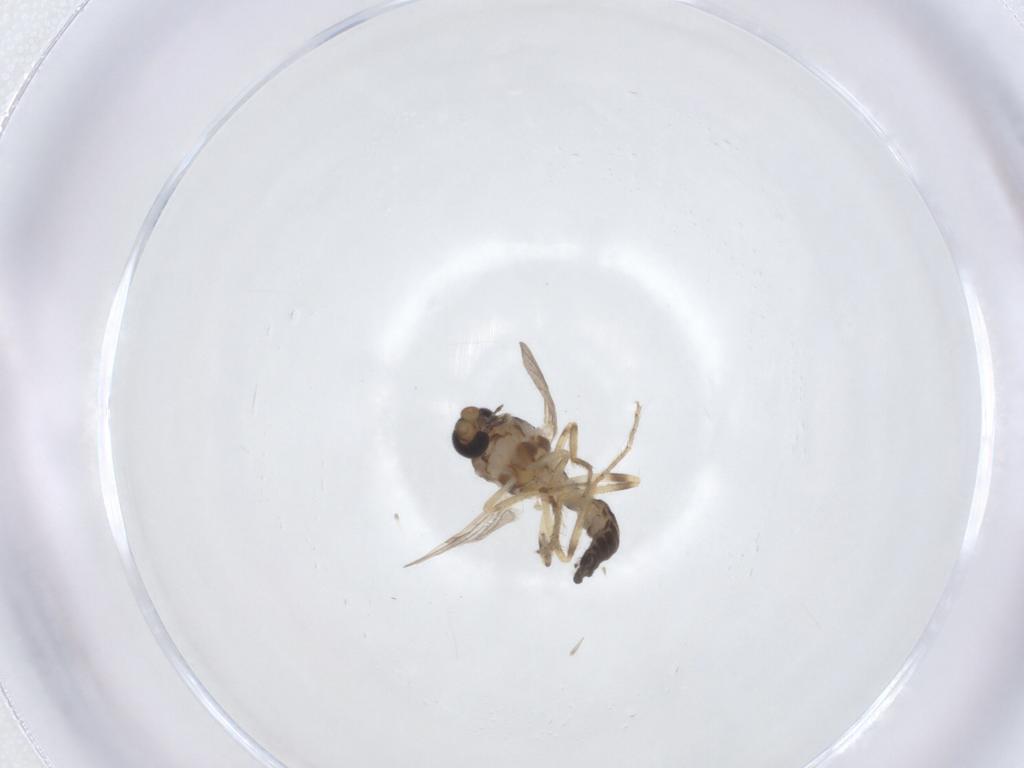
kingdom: Animalia
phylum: Arthropoda
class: Insecta
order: Diptera
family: Ceratopogonidae
